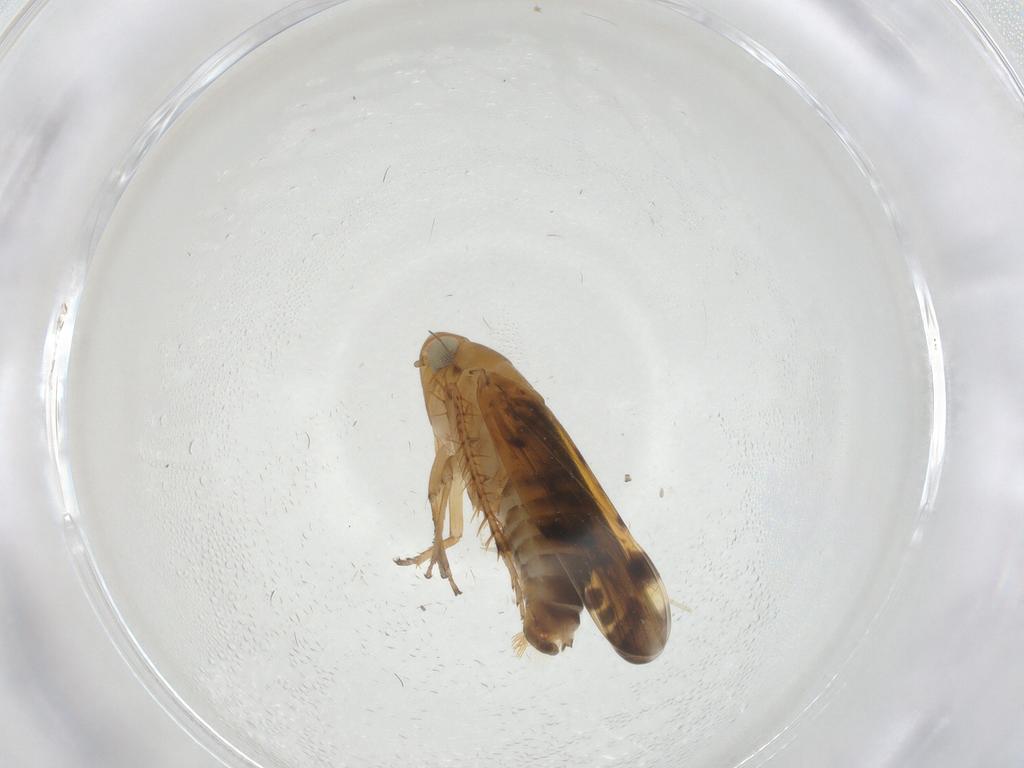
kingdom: Animalia
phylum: Arthropoda
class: Insecta
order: Hemiptera
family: Cicadellidae
